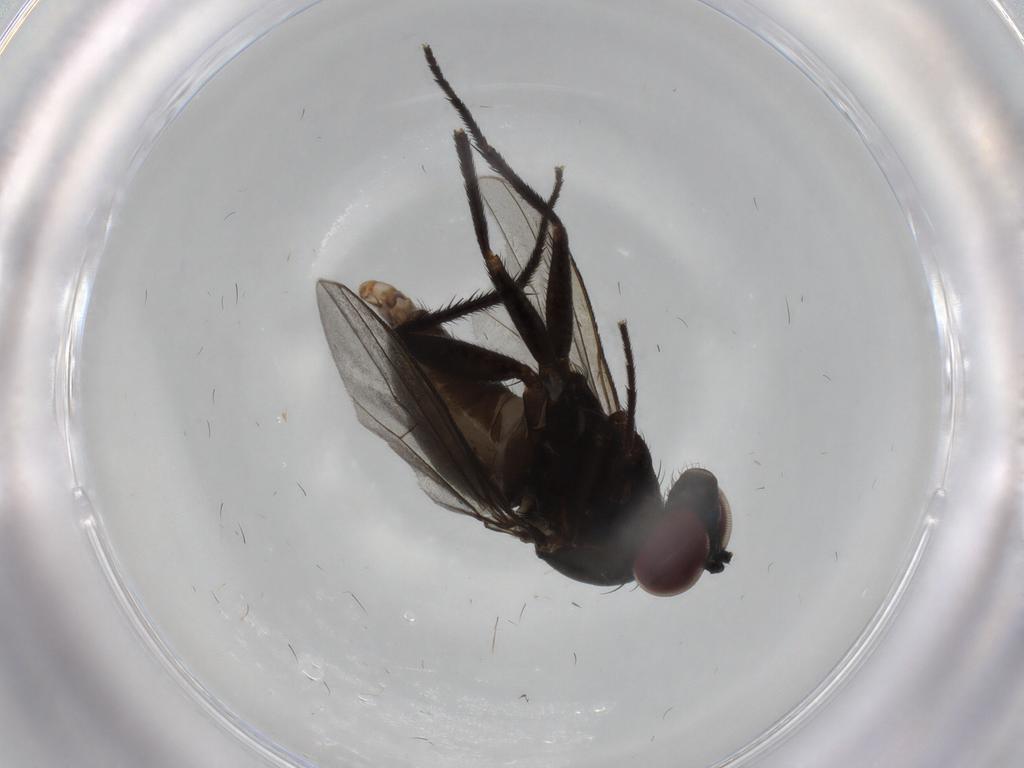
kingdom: Animalia
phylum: Arthropoda
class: Insecta
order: Diptera
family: Dolichopodidae
